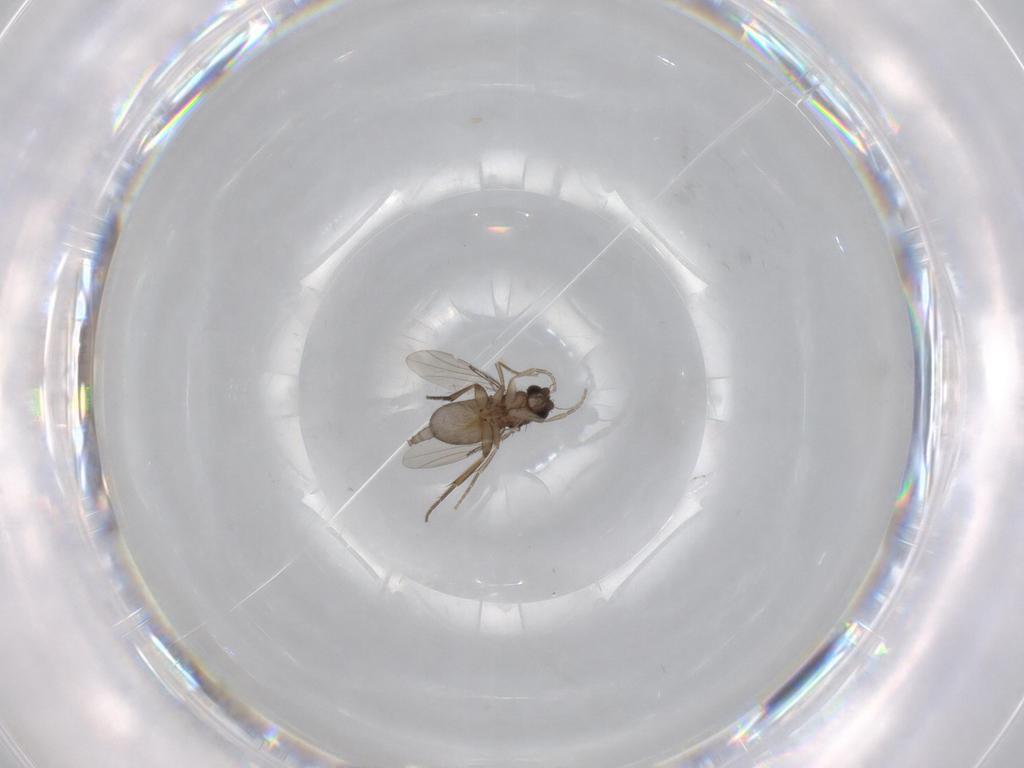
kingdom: Animalia
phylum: Arthropoda
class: Insecta
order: Diptera
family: Phoridae
